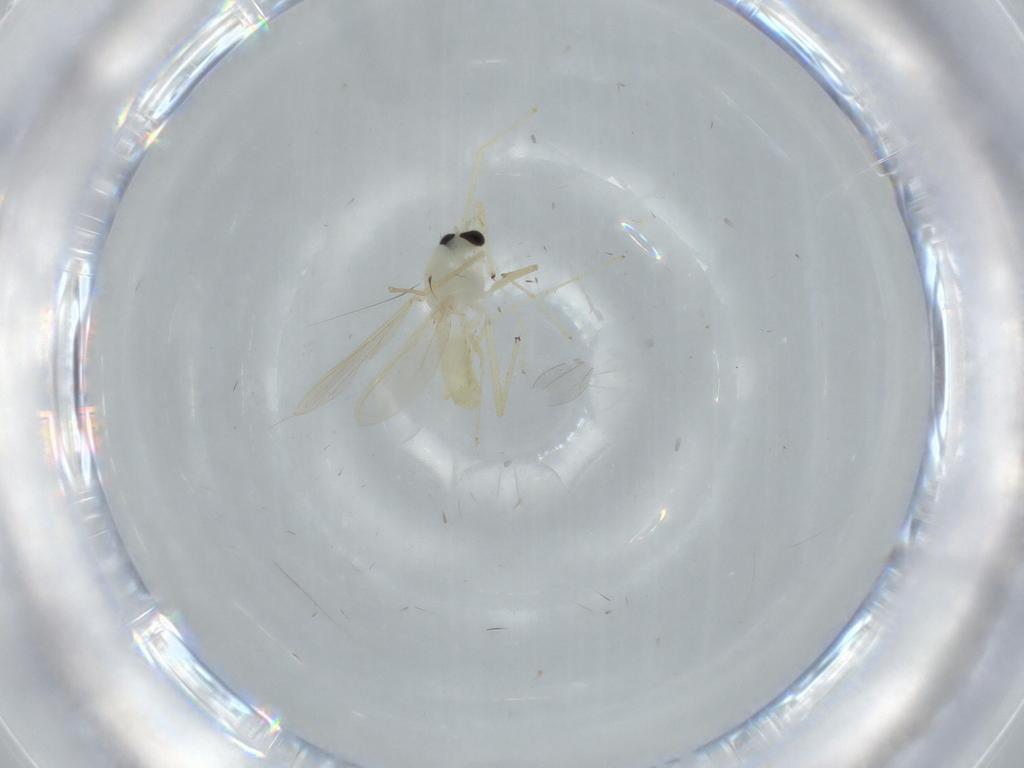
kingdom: Animalia
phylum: Arthropoda
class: Insecta
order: Diptera
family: Chironomidae
